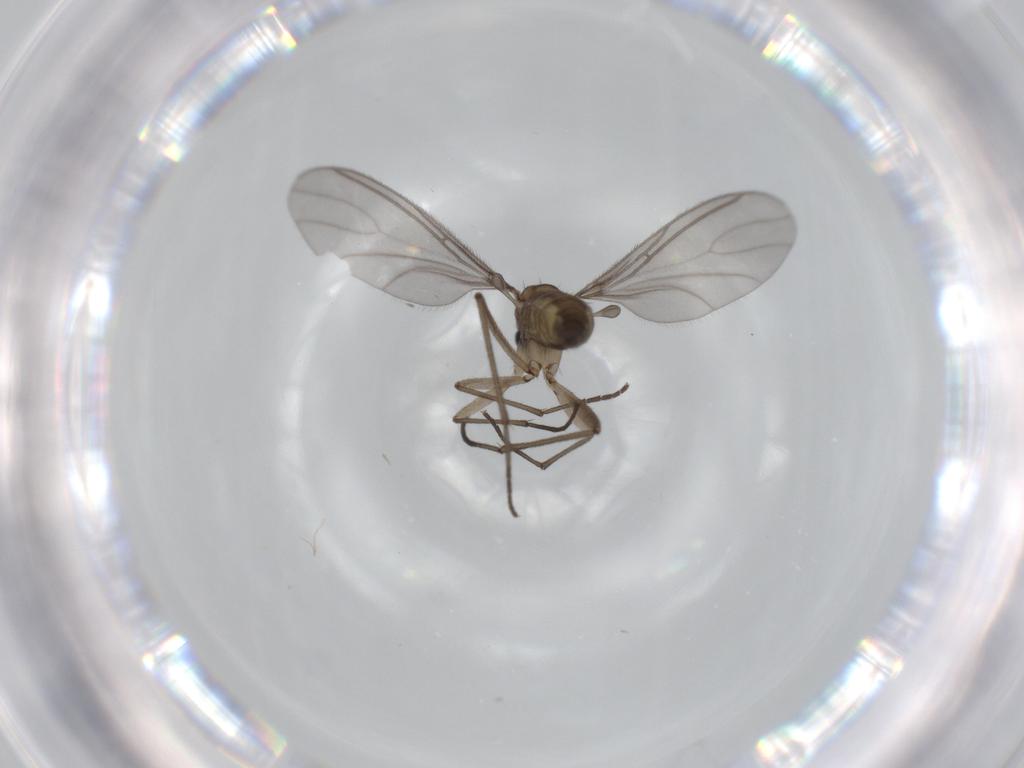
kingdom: Animalia
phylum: Arthropoda
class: Insecta
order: Diptera
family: Sciaridae
